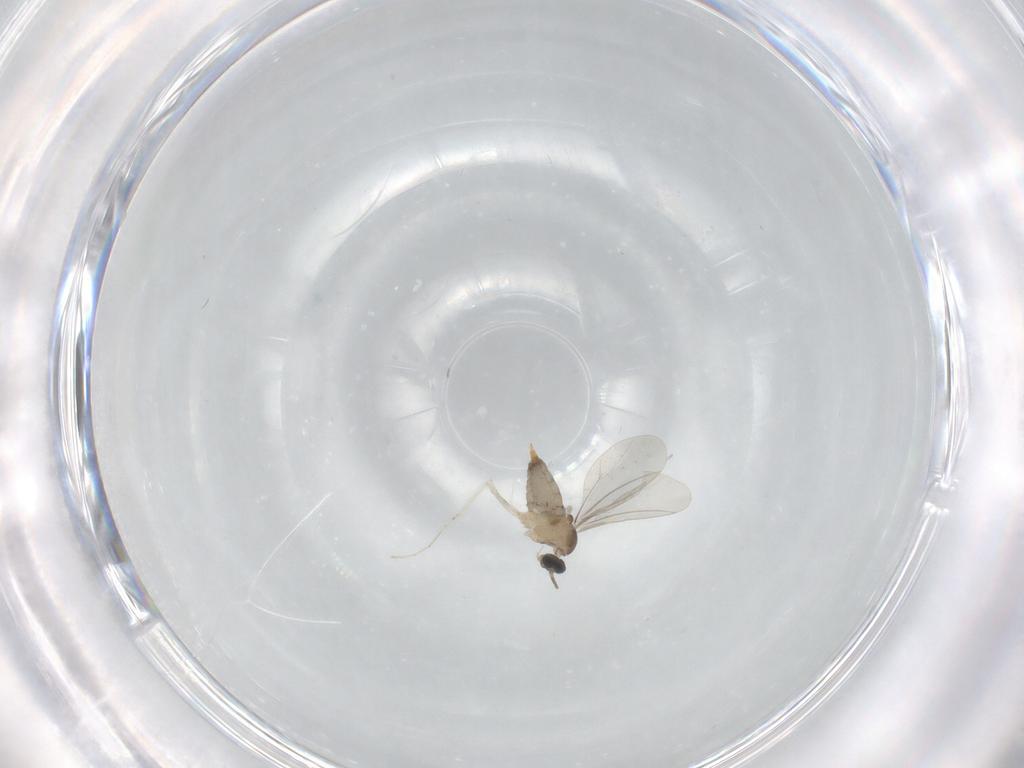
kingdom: Animalia
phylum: Arthropoda
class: Insecta
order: Diptera
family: Cecidomyiidae
